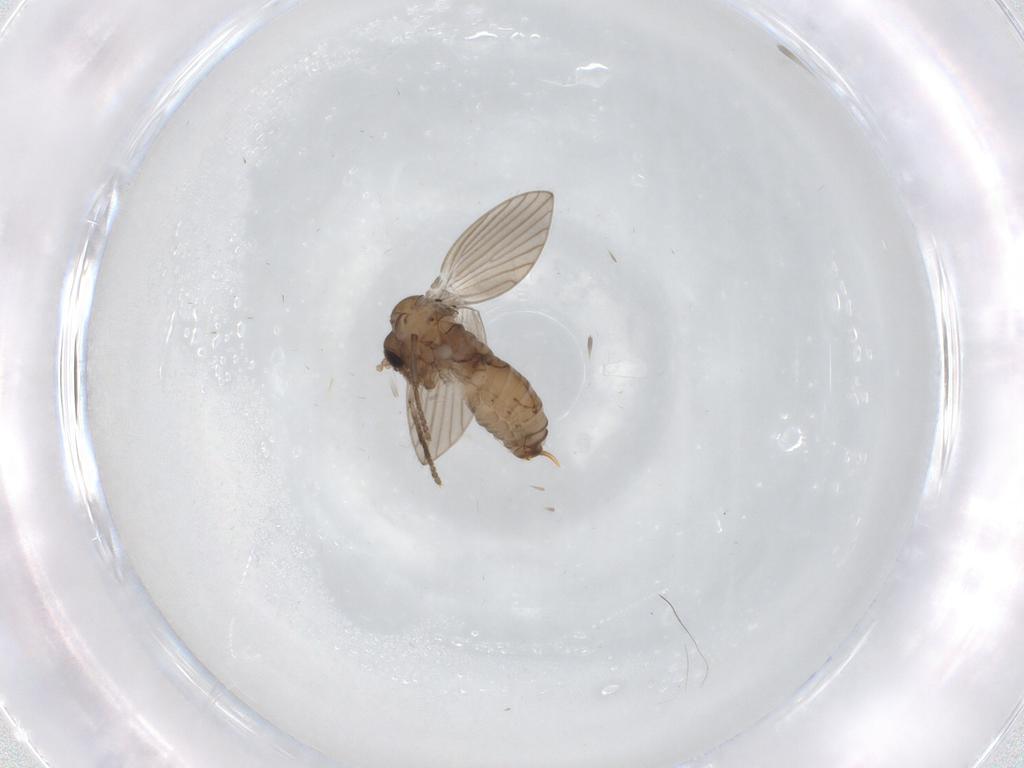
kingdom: Animalia
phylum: Arthropoda
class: Insecta
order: Diptera
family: Psychodidae
